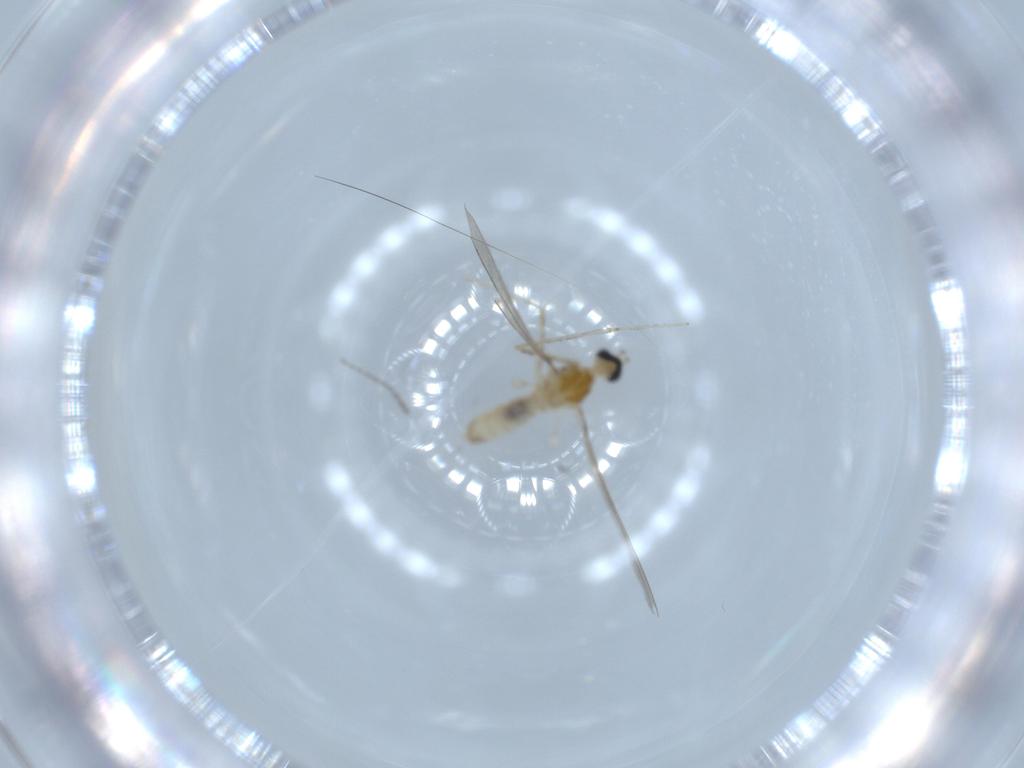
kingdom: Animalia
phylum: Arthropoda
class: Insecta
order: Diptera
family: Cecidomyiidae
